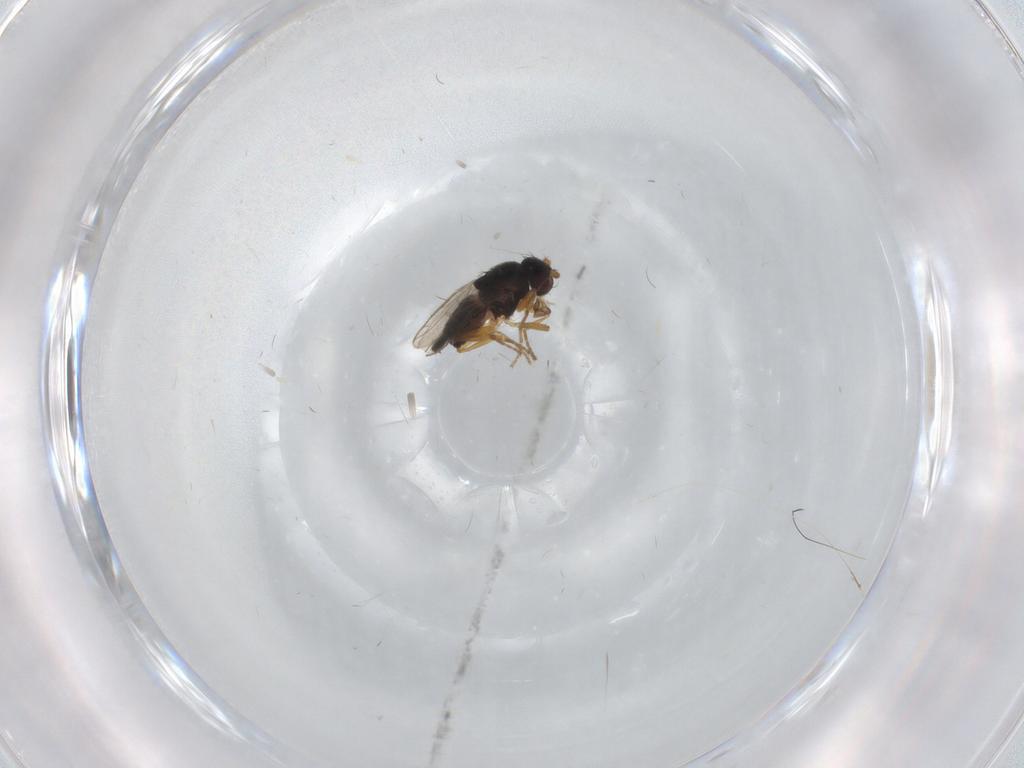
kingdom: Animalia
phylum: Arthropoda
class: Insecta
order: Diptera
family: Sphaeroceridae
